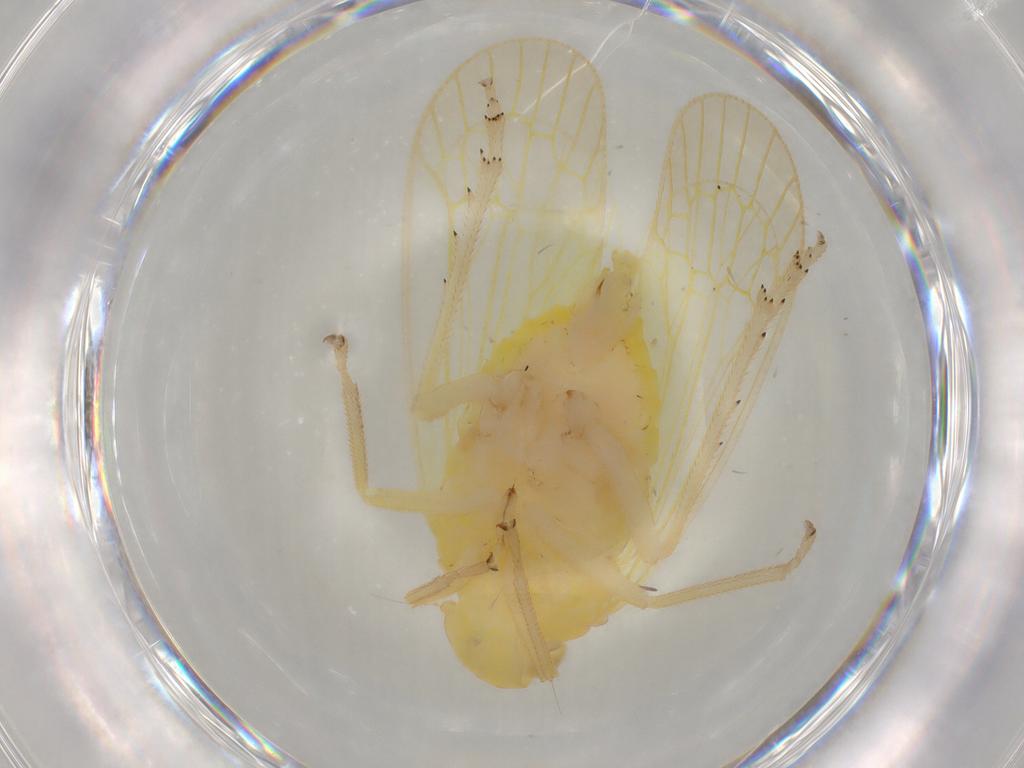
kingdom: Animalia
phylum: Arthropoda
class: Insecta
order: Hemiptera
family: Tropiduchidae
